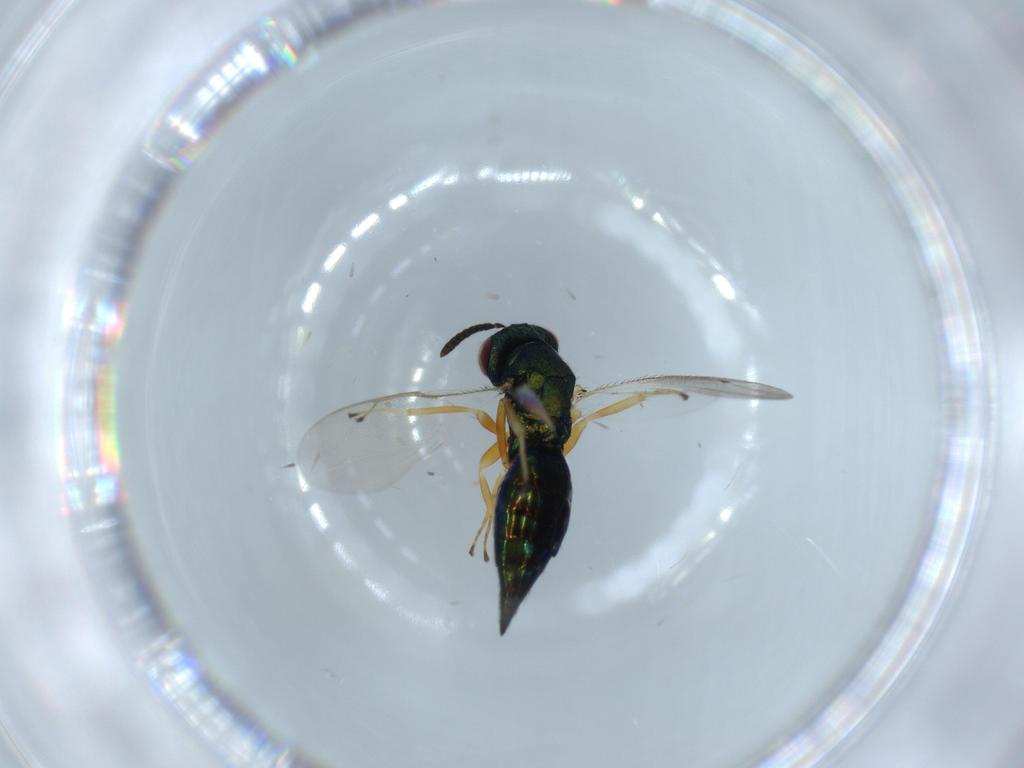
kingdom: Animalia
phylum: Arthropoda
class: Insecta
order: Hymenoptera
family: Pteromalidae
